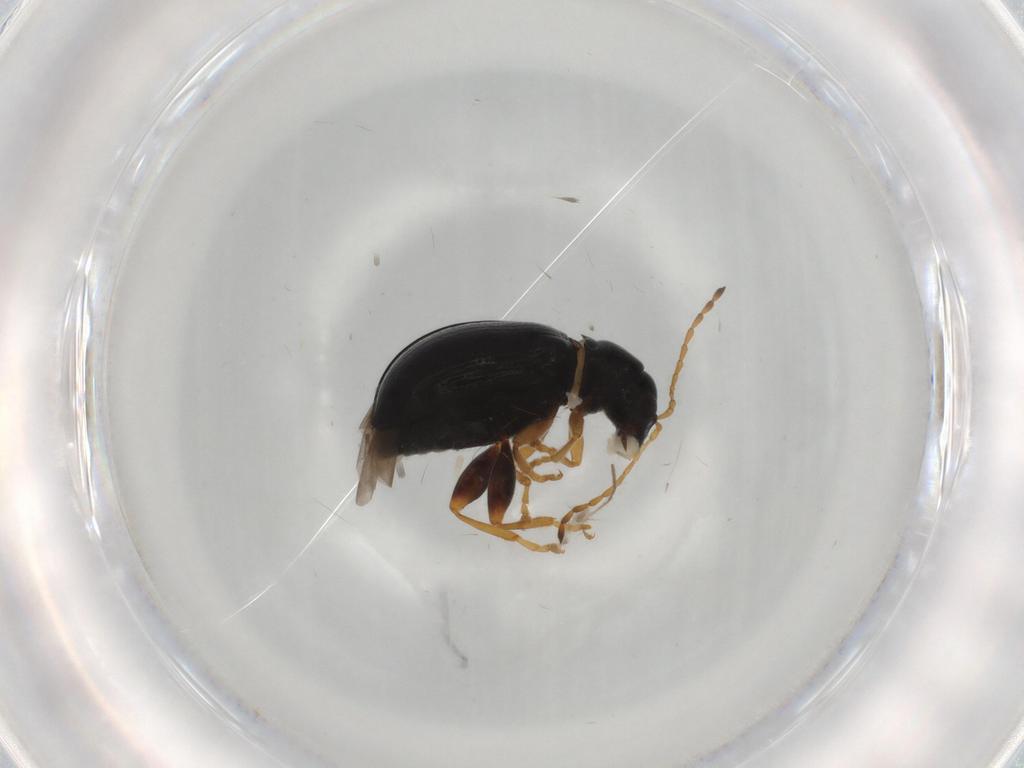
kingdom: Animalia
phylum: Arthropoda
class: Insecta
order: Coleoptera
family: Chrysomelidae
